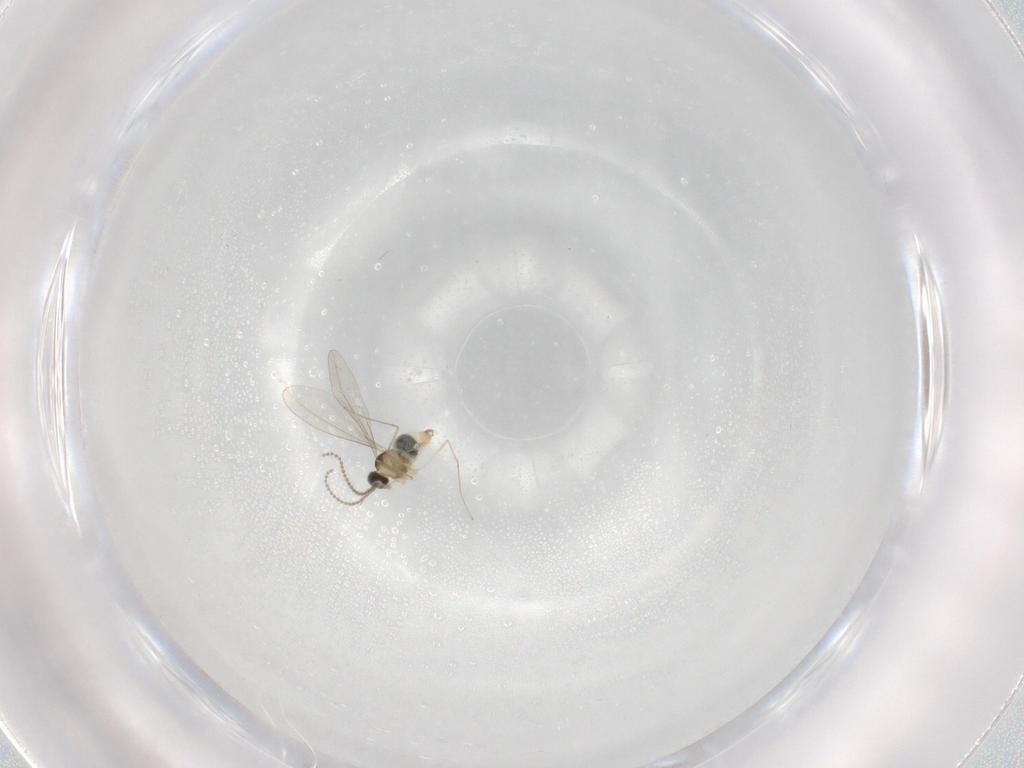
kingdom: Animalia
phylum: Arthropoda
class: Insecta
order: Diptera
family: Cecidomyiidae
